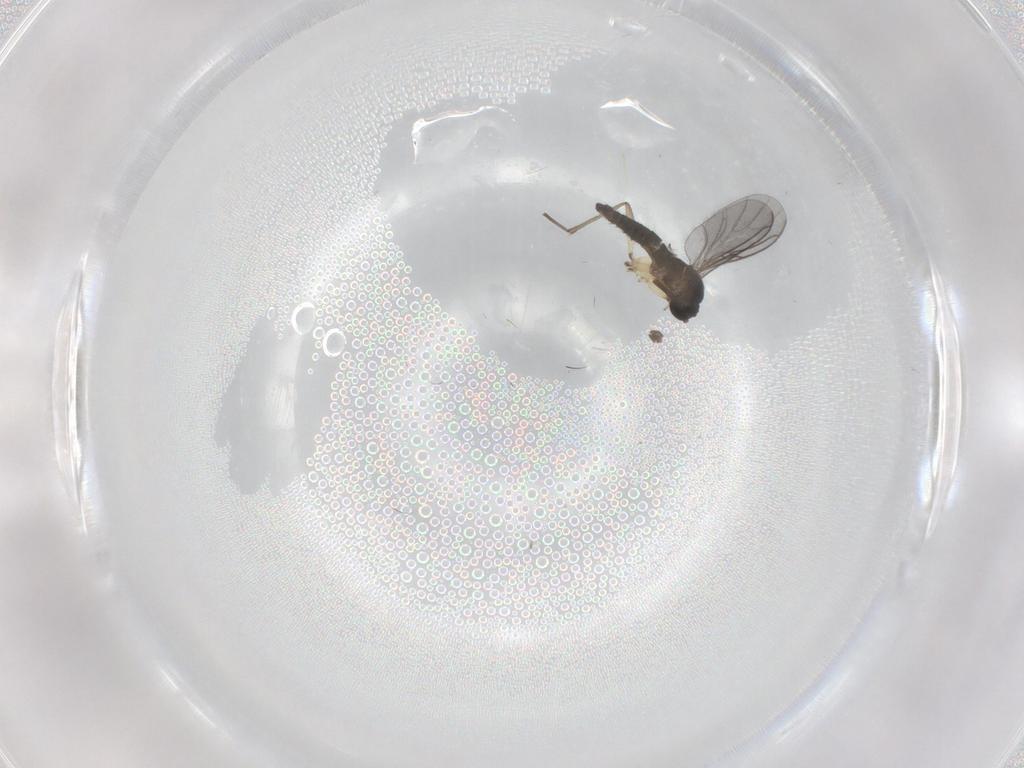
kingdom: Animalia
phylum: Arthropoda
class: Insecta
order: Diptera
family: Sciaridae
